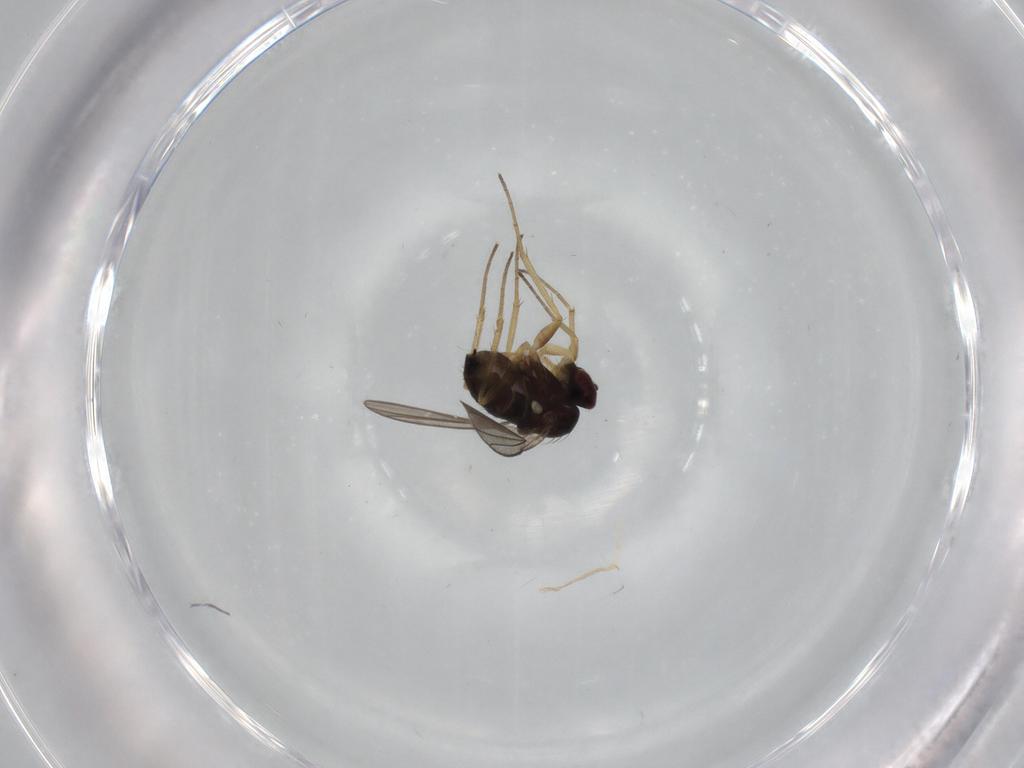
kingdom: Animalia
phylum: Arthropoda
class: Insecta
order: Diptera
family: Dolichopodidae
